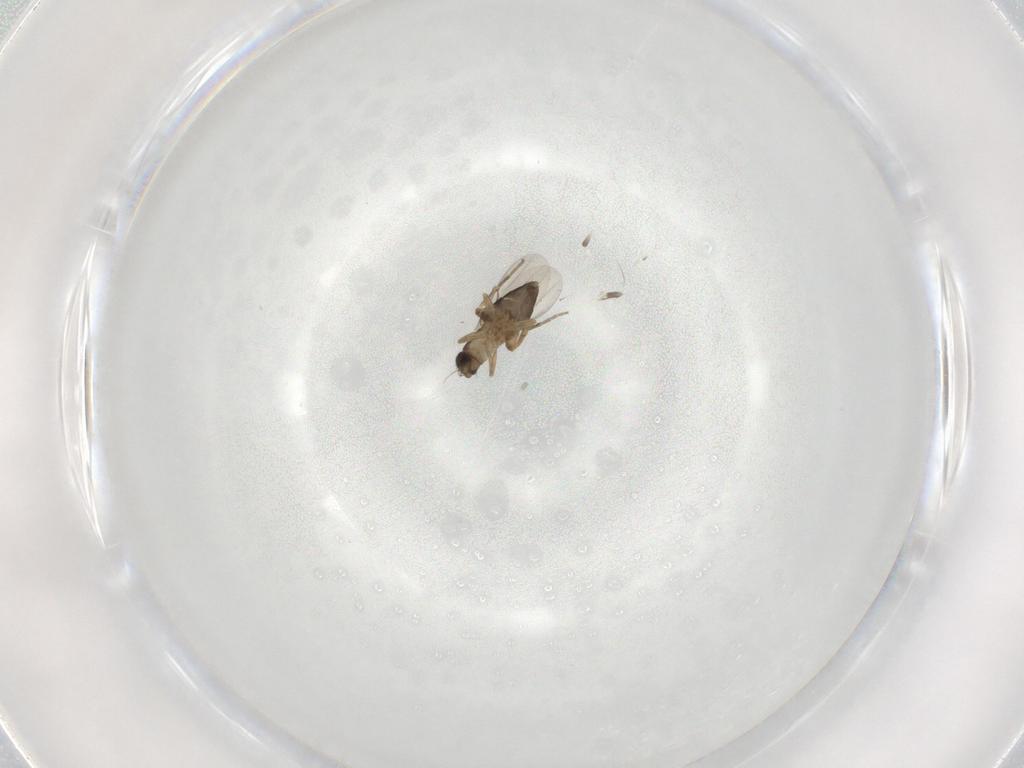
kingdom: Animalia
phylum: Arthropoda
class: Insecta
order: Diptera
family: Phoridae
